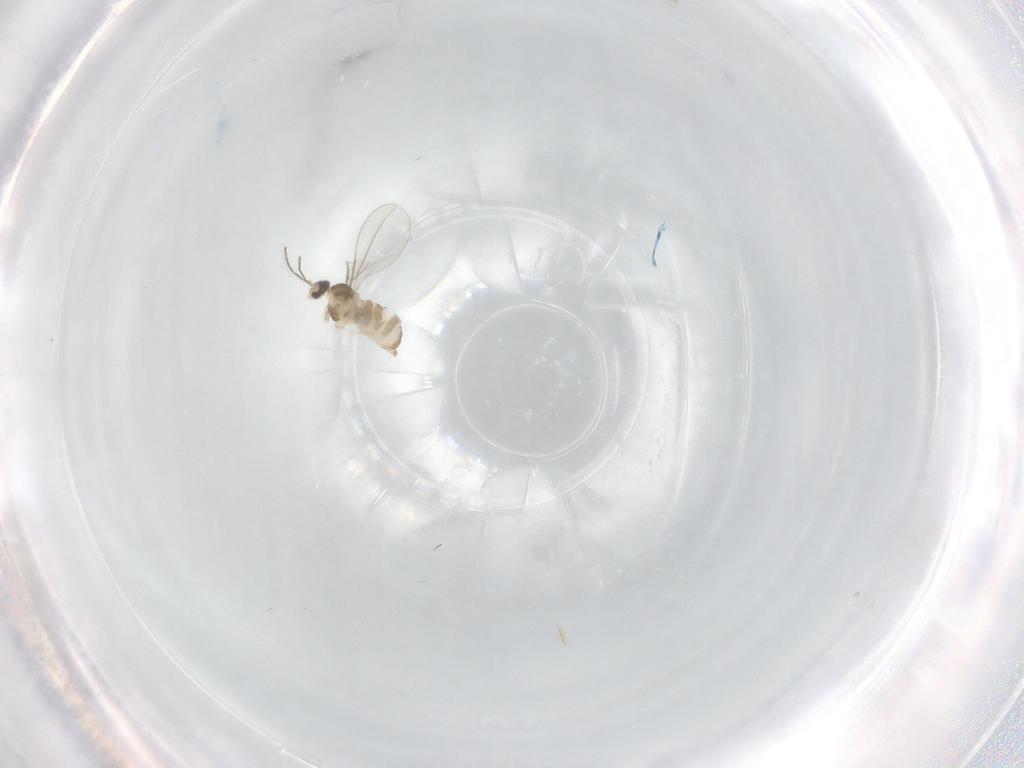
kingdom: Animalia
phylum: Arthropoda
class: Insecta
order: Diptera
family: Cecidomyiidae
